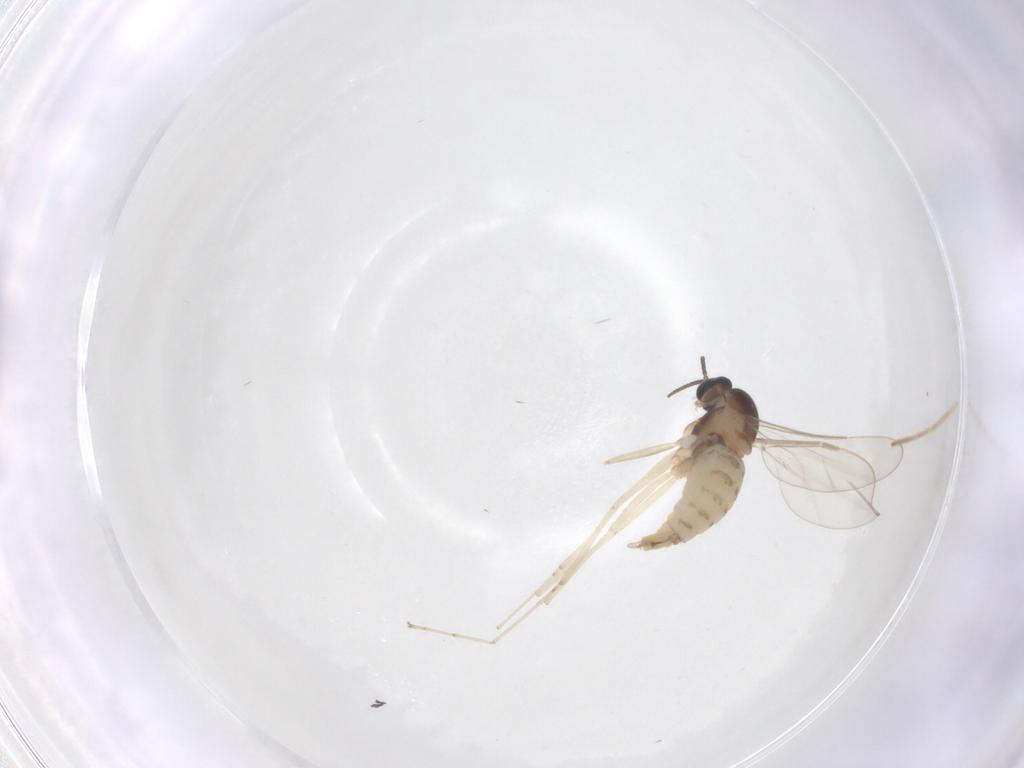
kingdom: Animalia
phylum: Arthropoda
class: Insecta
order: Diptera
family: Cecidomyiidae
